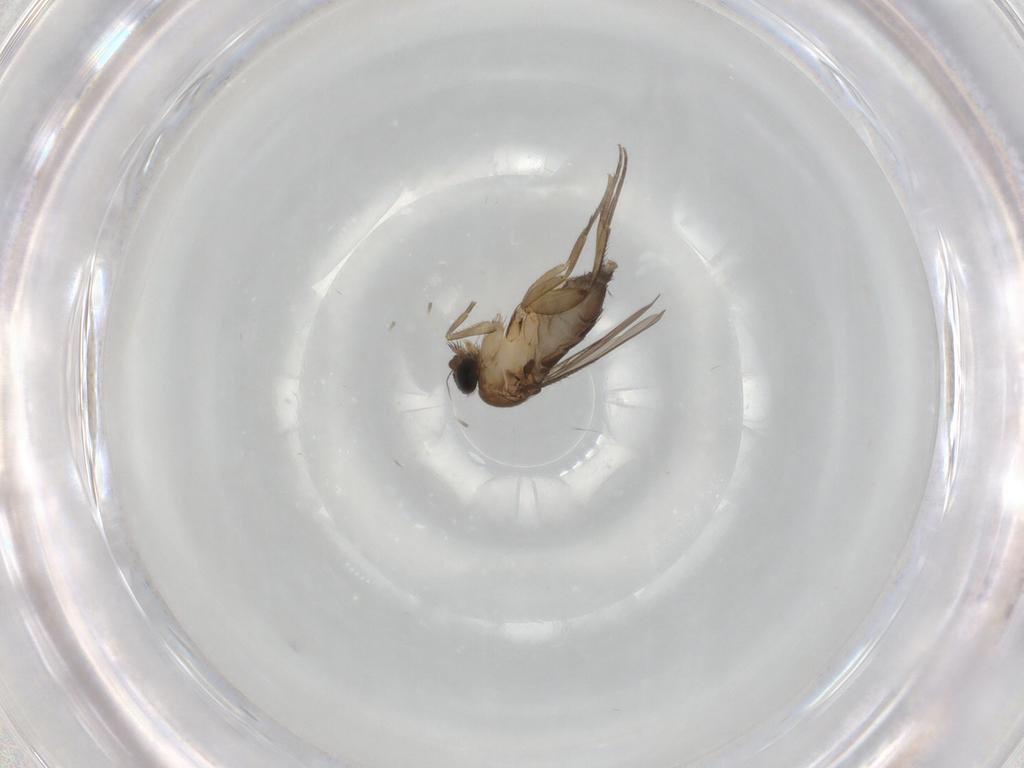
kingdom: Animalia
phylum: Arthropoda
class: Insecta
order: Diptera
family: Phoridae
